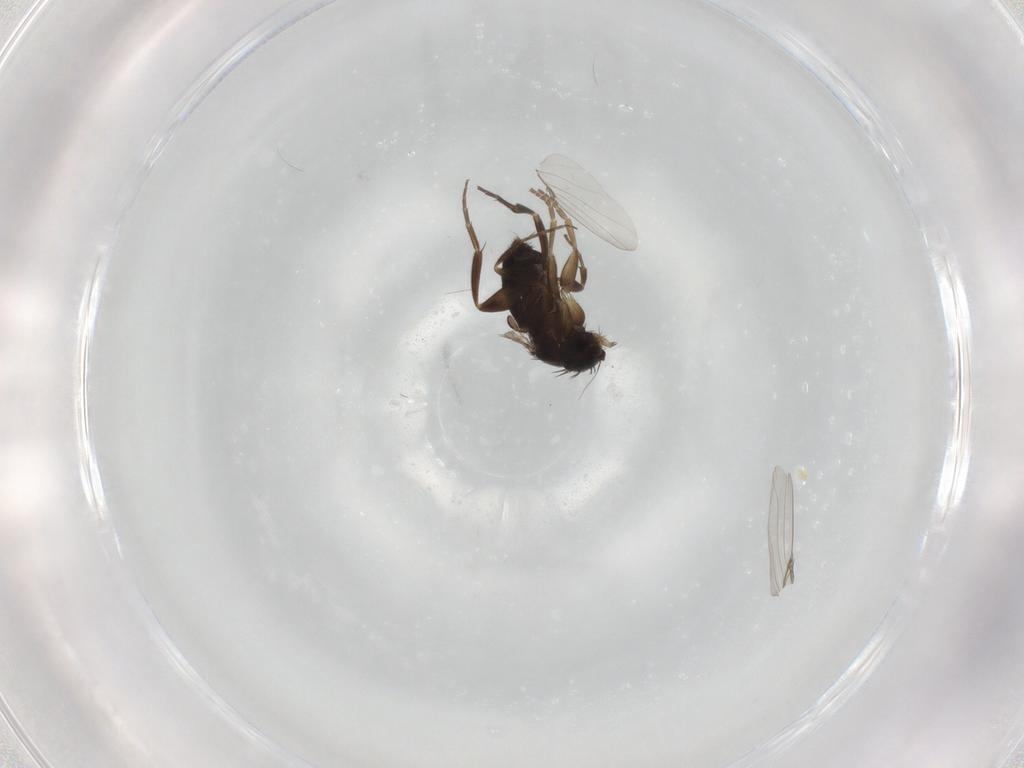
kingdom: Animalia
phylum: Arthropoda
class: Insecta
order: Diptera
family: Phoridae
